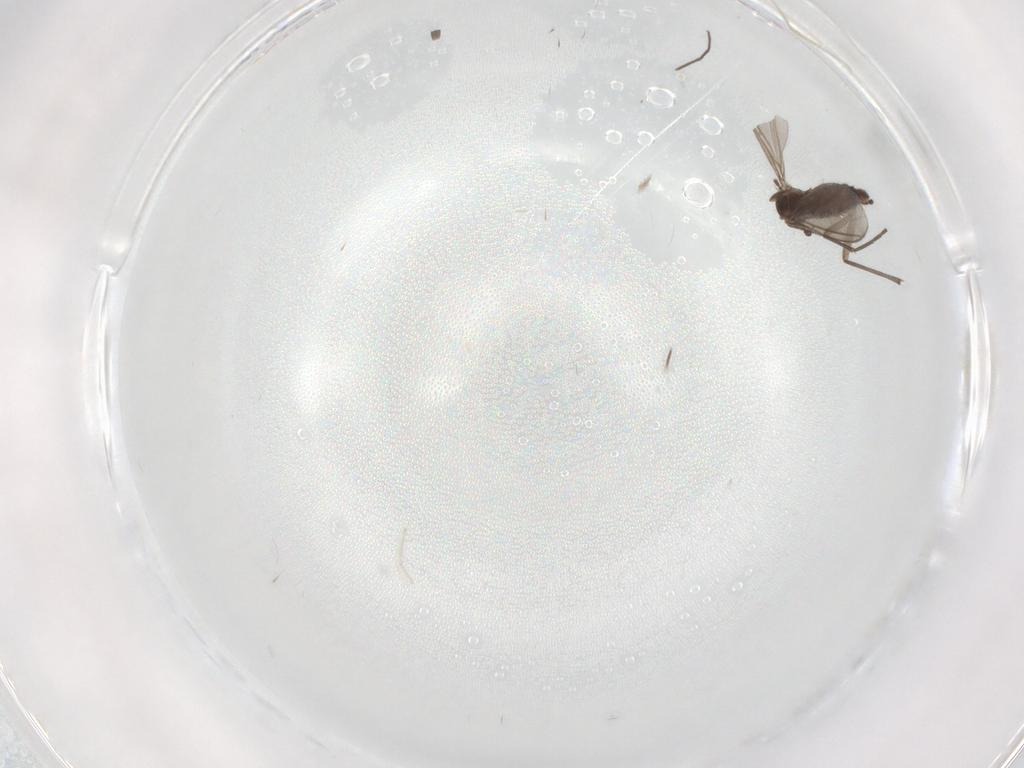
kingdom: Animalia
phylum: Arthropoda
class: Insecta
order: Diptera
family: Chironomidae
